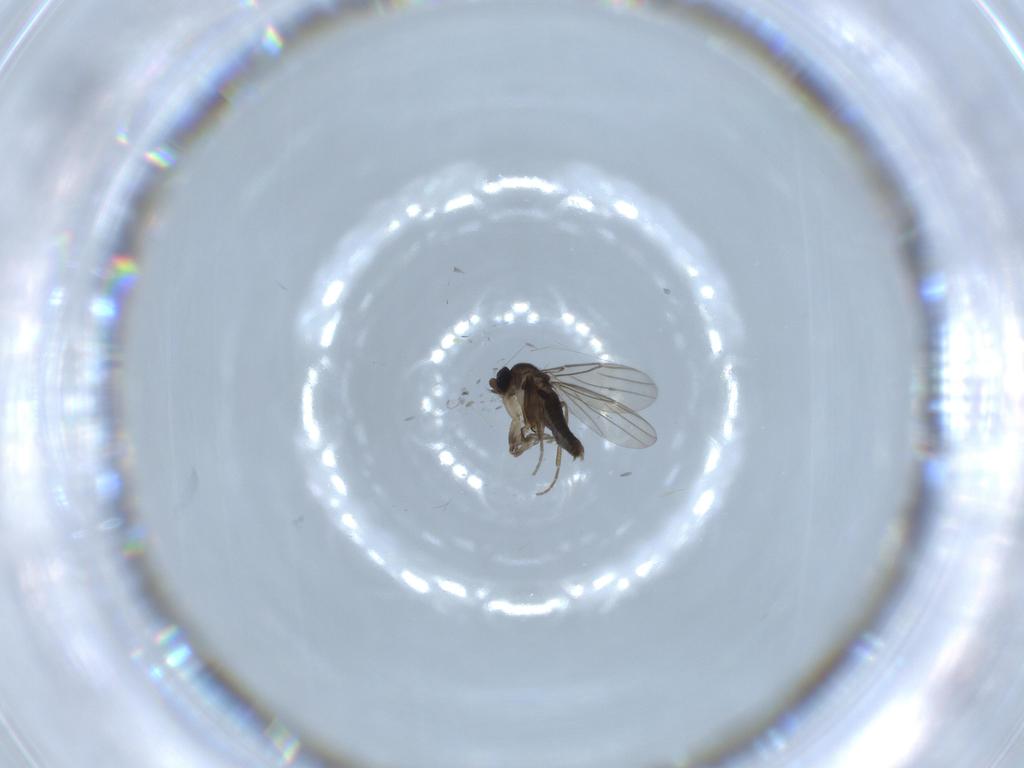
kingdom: Animalia
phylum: Arthropoda
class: Insecta
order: Diptera
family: Phoridae
